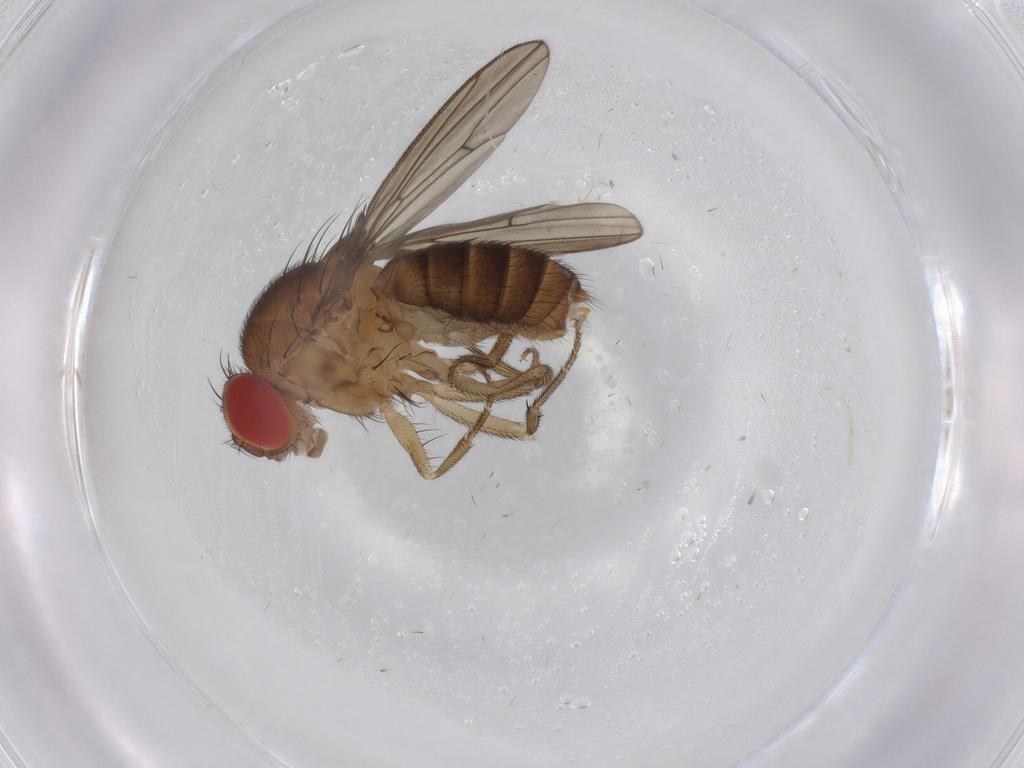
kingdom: Animalia
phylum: Arthropoda
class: Insecta
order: Diptera
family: Drosophilidae
